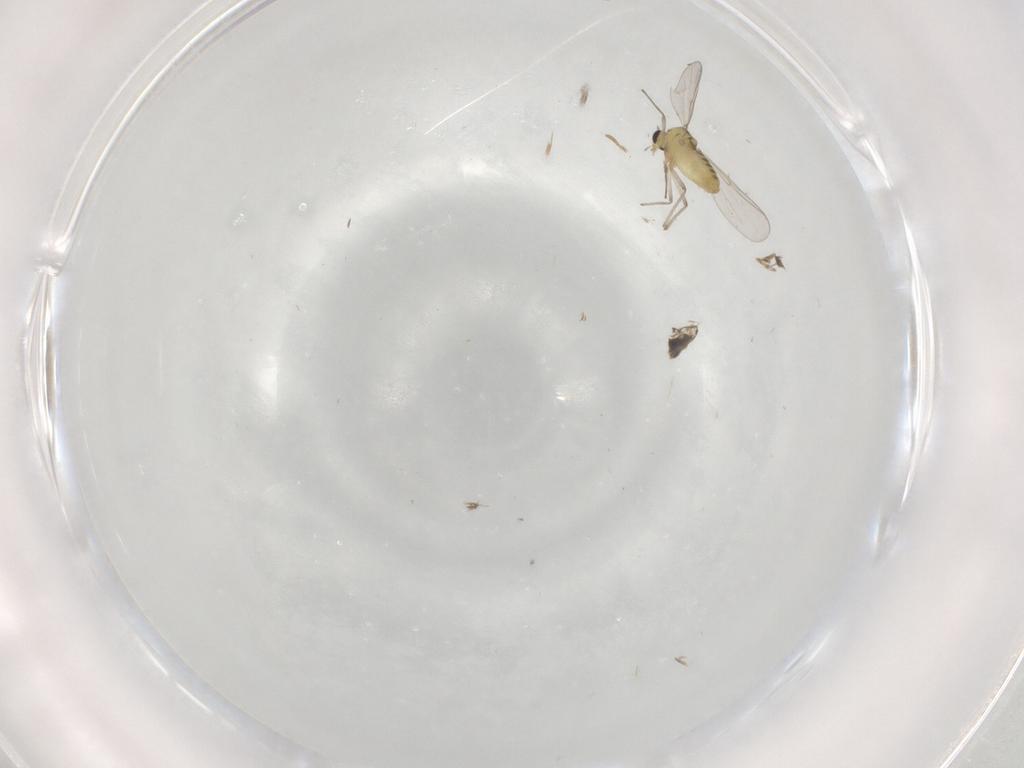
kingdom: Animalia
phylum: Arthropoda
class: Insecta
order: Diptera
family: Chironomidae
